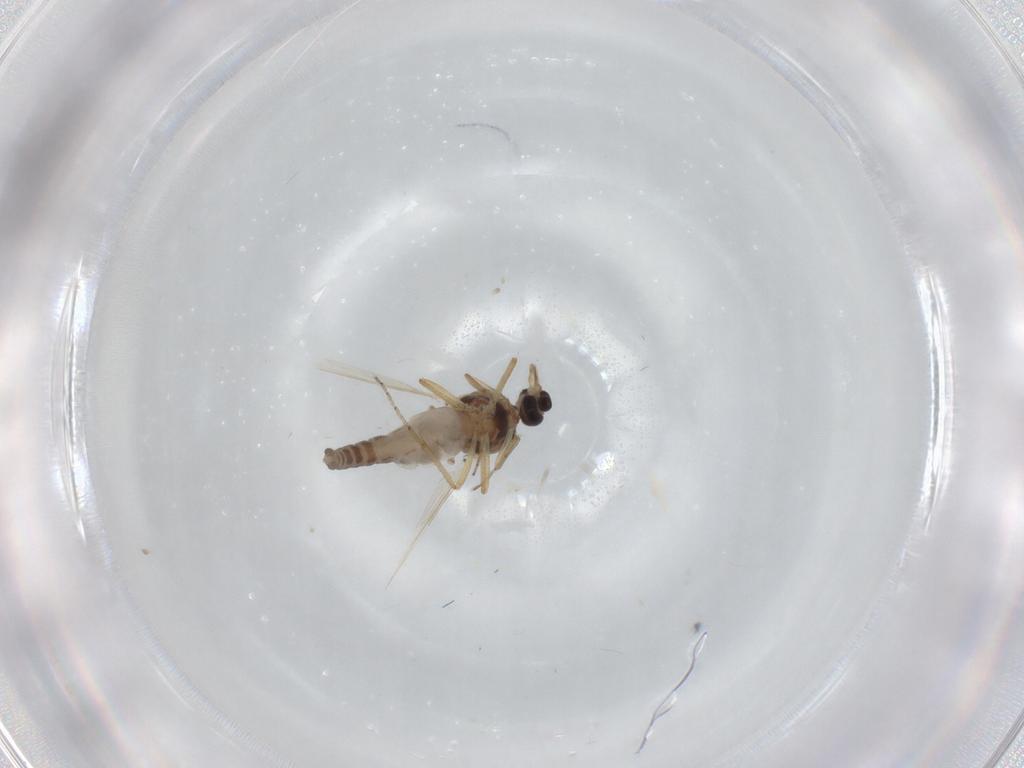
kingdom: Animalia
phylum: Arthropoda
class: Insecta
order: Diptera
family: Ceratopogonidae
